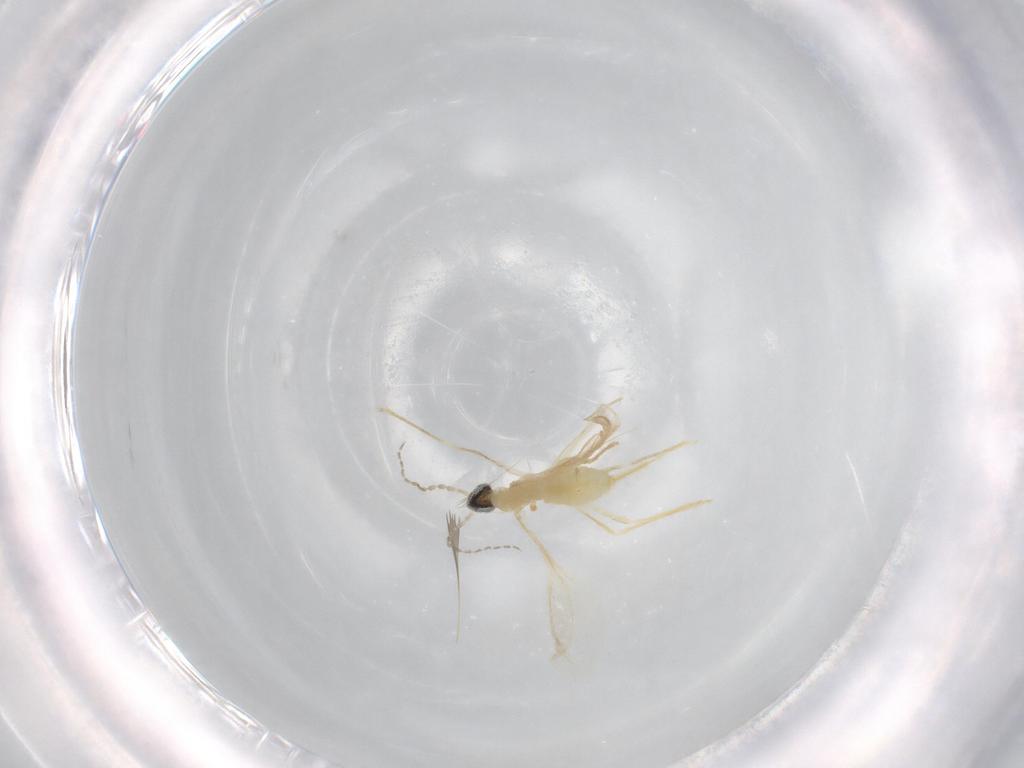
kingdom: Animalia
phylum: Arthropoda
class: Insecta
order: Diptera
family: Cecidomyiidae
